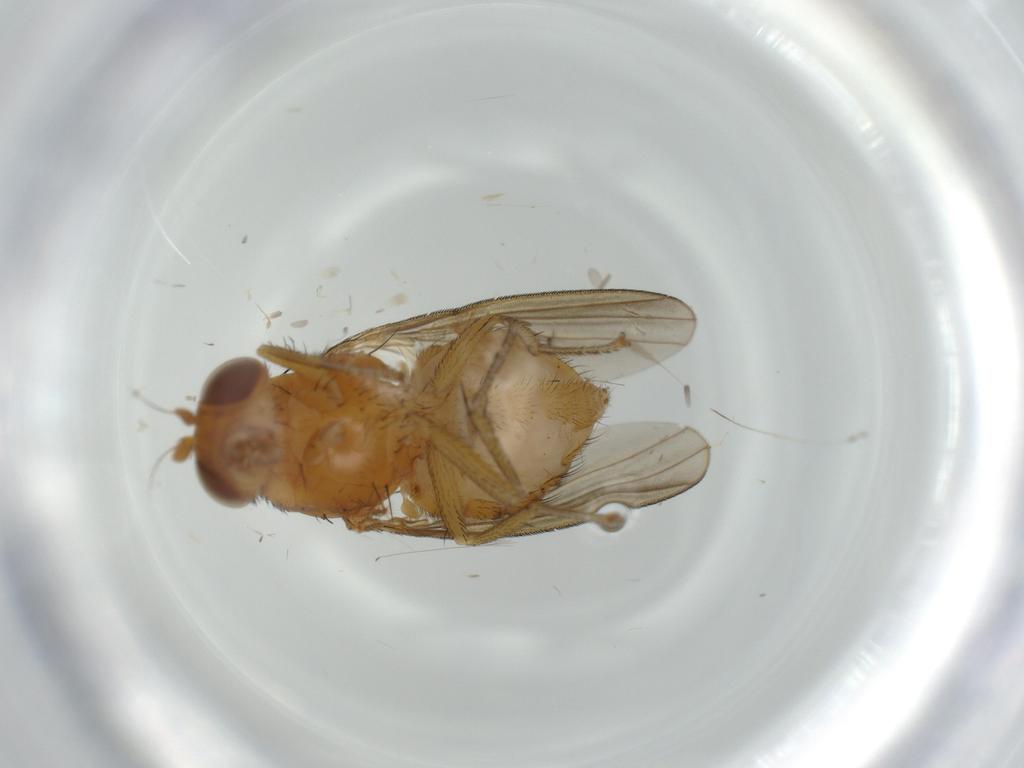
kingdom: Animalia
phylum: Arthropoda
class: Insecta
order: Diptera
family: Chironomidae
